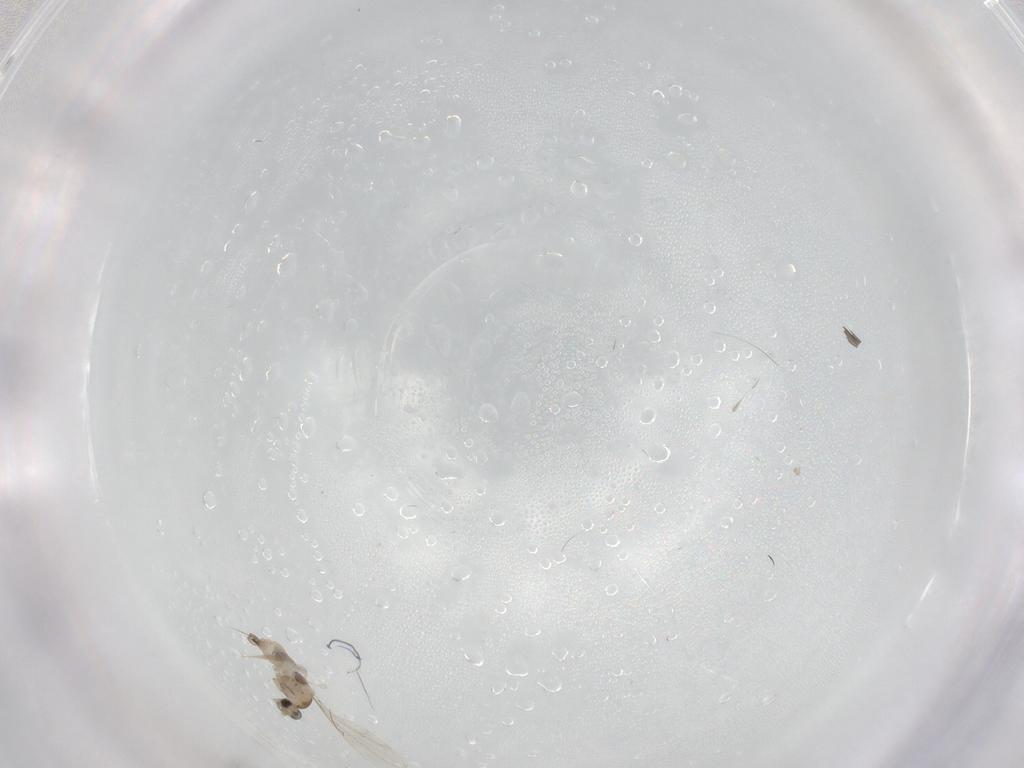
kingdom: Animalia
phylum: Arthropoda
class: Insecta
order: Diptera
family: Cecidomyiidae
